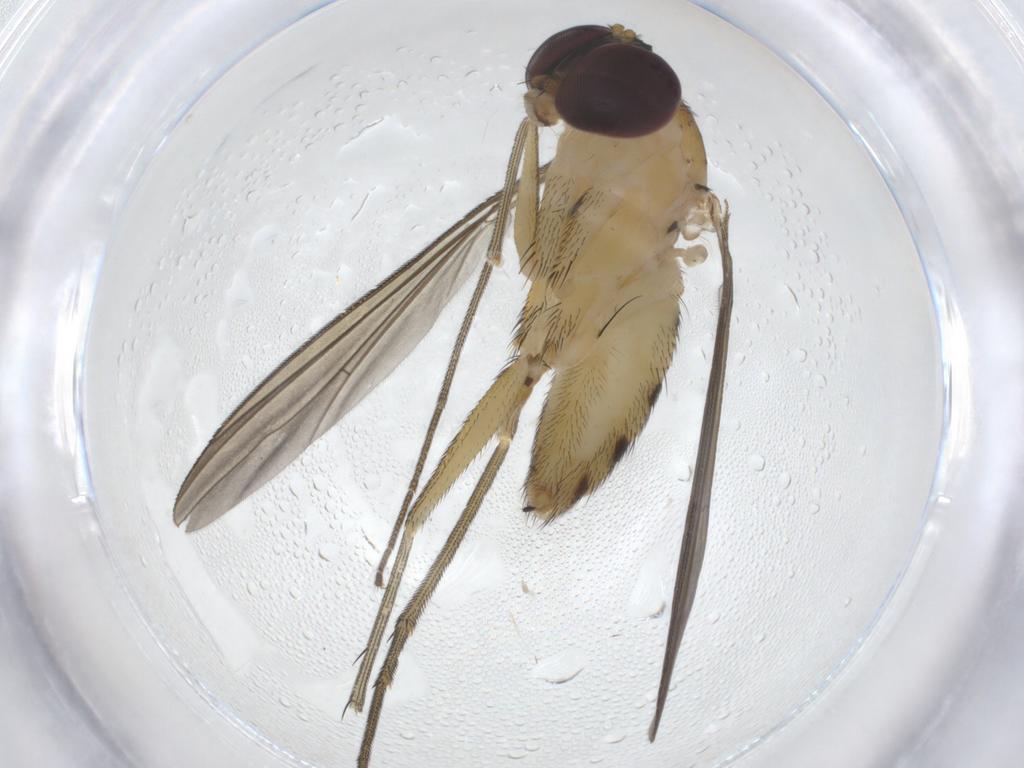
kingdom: Animalia
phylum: Arthropoda
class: Insecta
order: Diptera
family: Dolichopodidae
